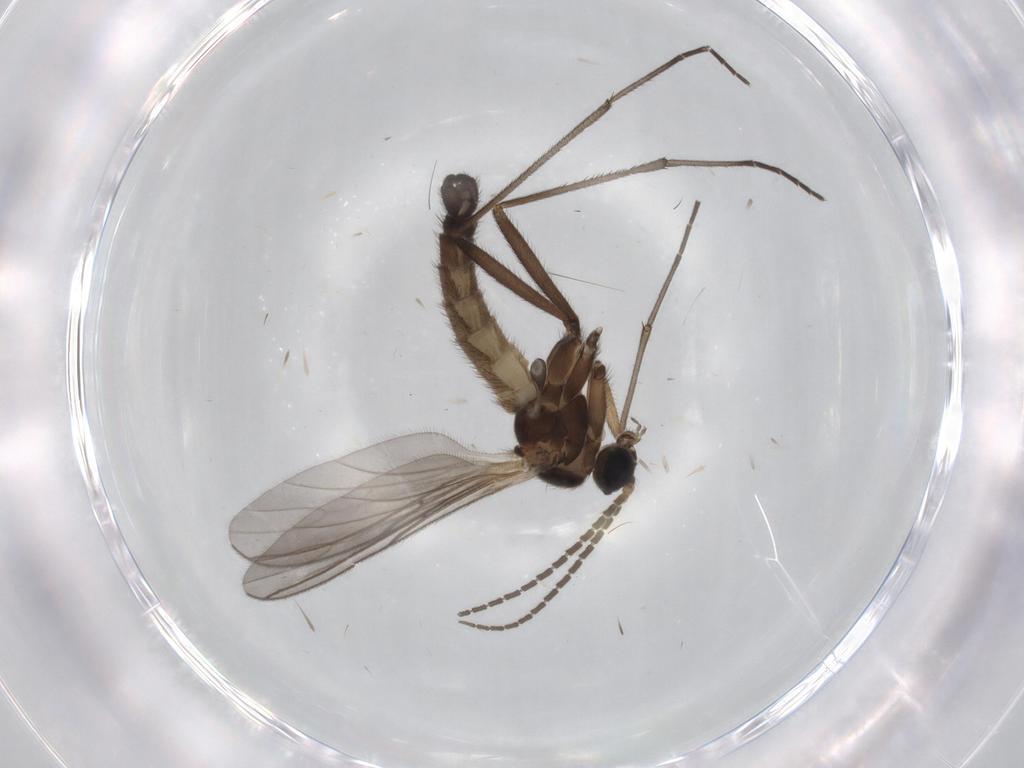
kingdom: Animalia
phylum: Arthropoda
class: Insecta
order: Diptera
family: Sciaridae
